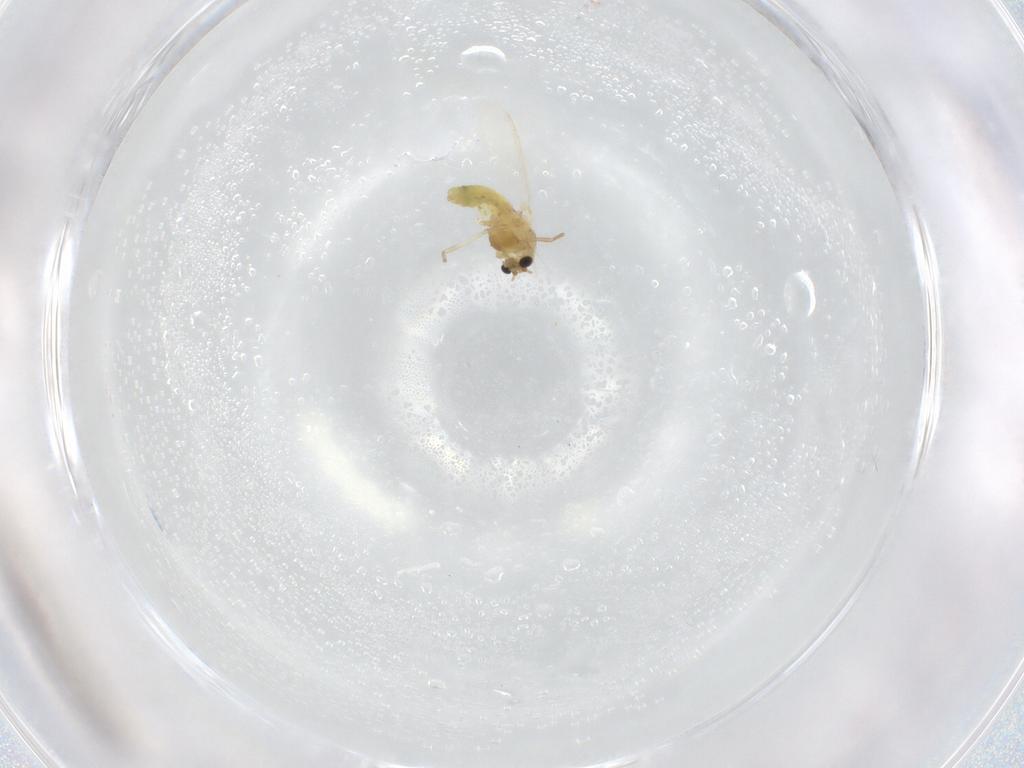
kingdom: Animalia
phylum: Arthropoda
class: Insecta
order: Diptera
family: Chironomidae
